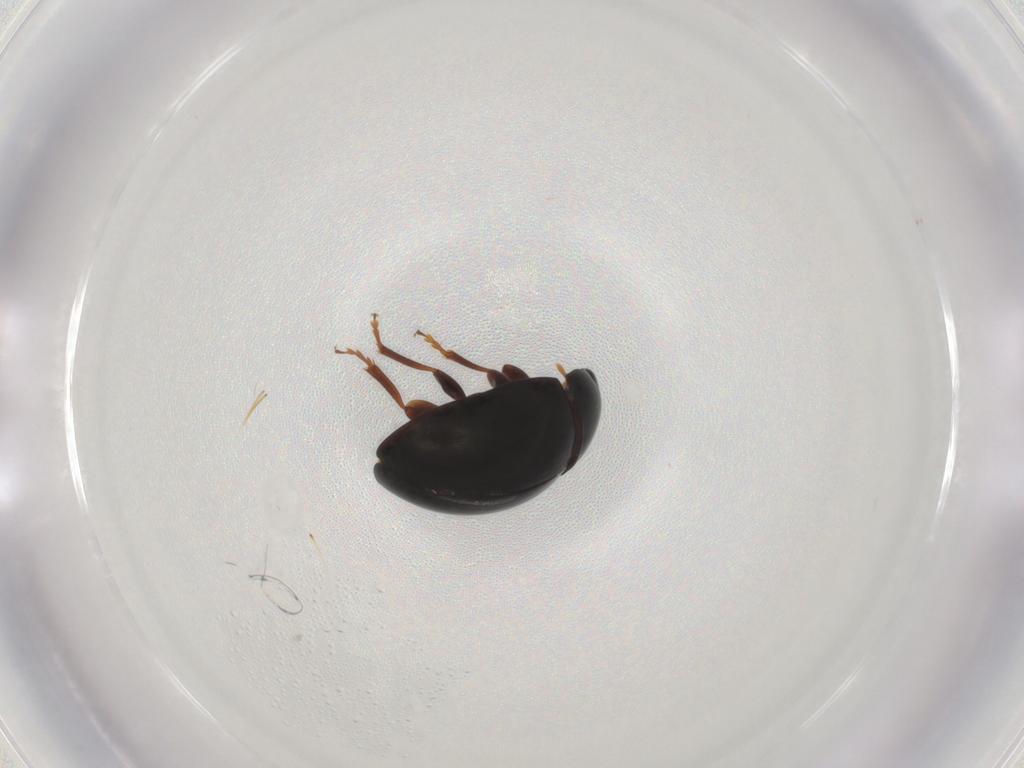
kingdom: Animalia
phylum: Arthropoda
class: Insecta
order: Coleoptera
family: Phalacridae
